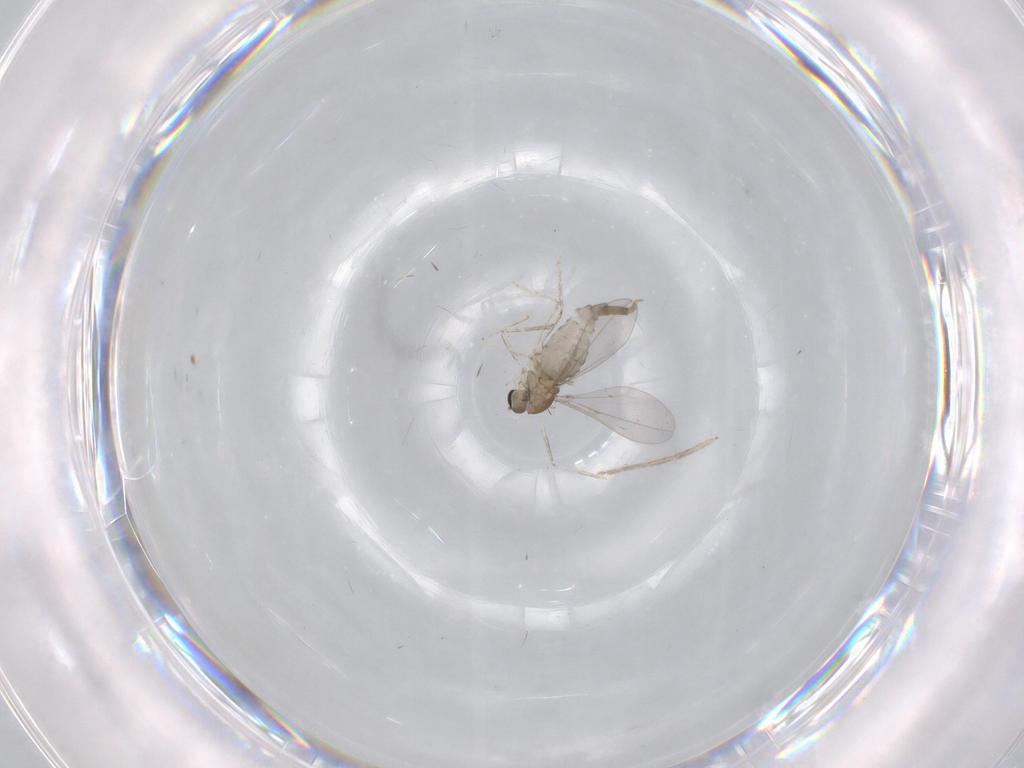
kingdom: Animalia
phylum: Arthropoda
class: Insecta
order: Diptera
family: Cecidomyiidae
